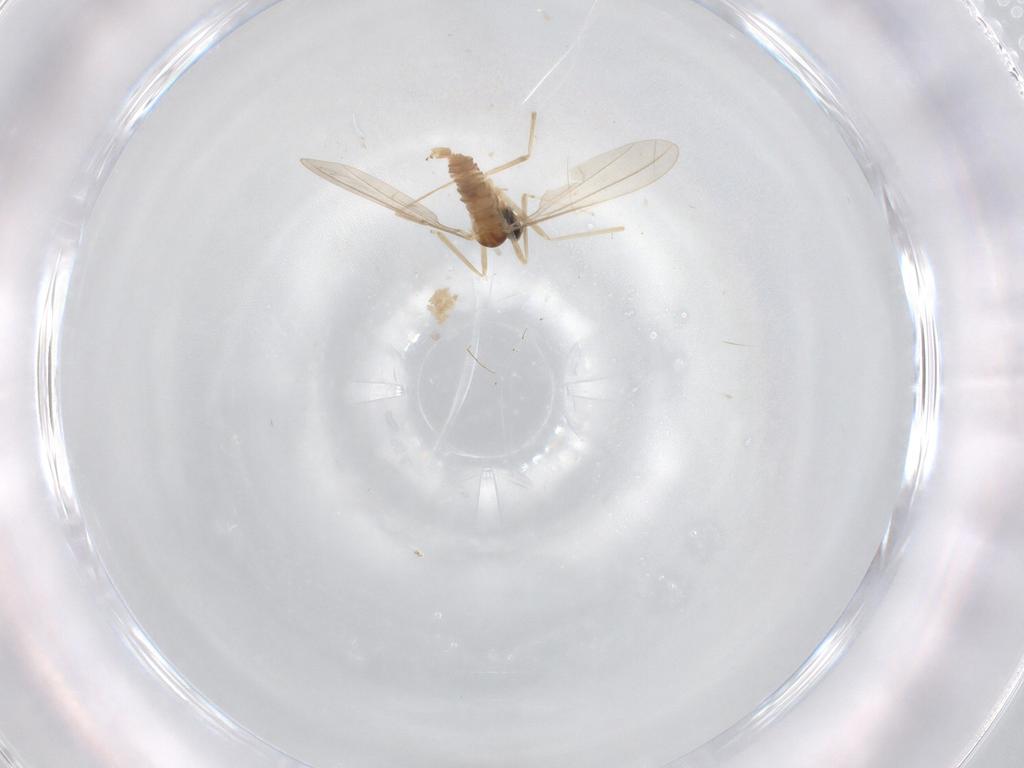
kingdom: Animalia
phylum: Arthropoda
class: Insecta
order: Diptera
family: Cecidomyiidae
